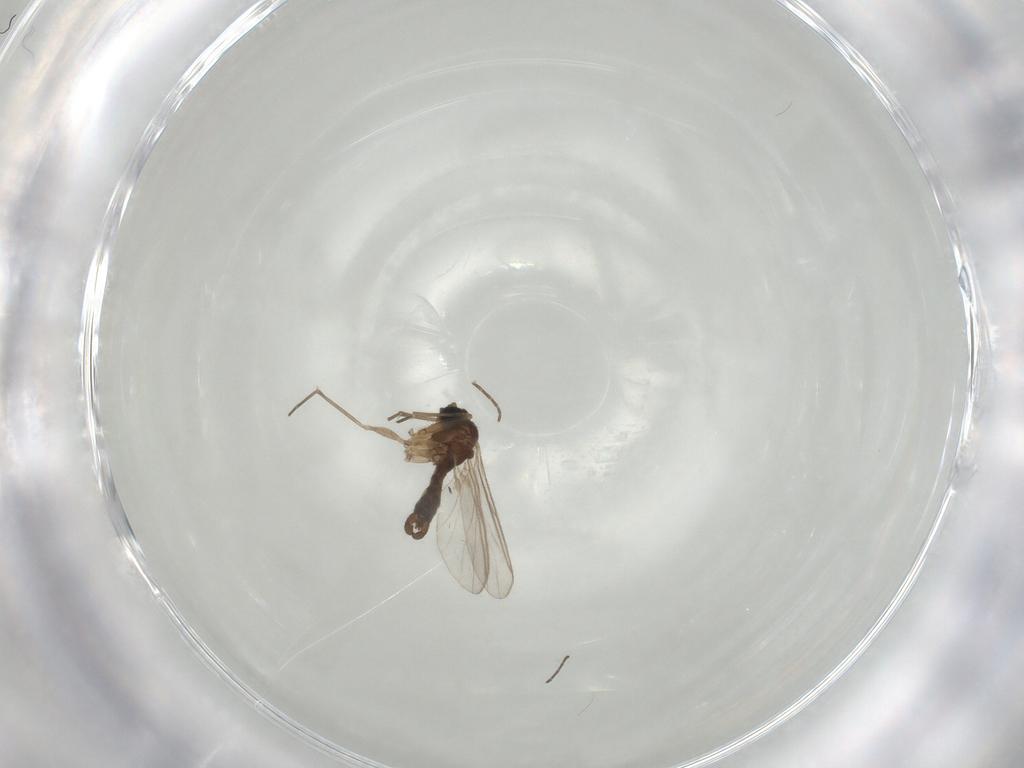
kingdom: Animalia
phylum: Arthropoda
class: Insecta
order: Diptera
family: Sciaridae
